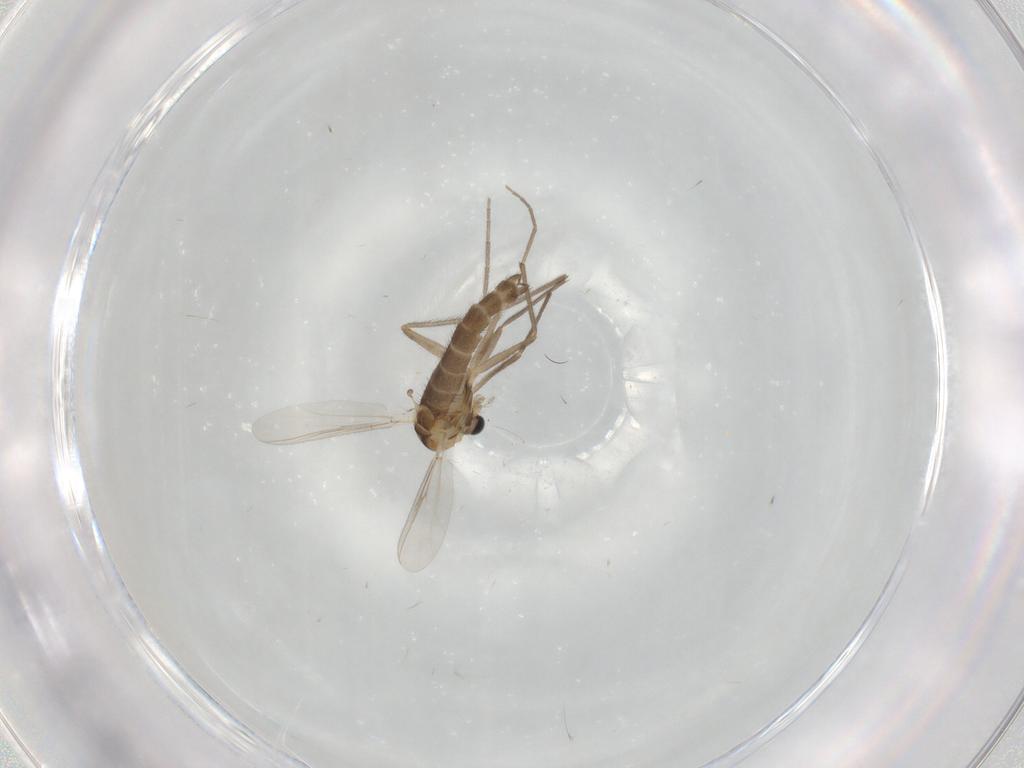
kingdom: Animalia
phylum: Arthropoda
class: Insecta
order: Diptera
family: Chironomidae
